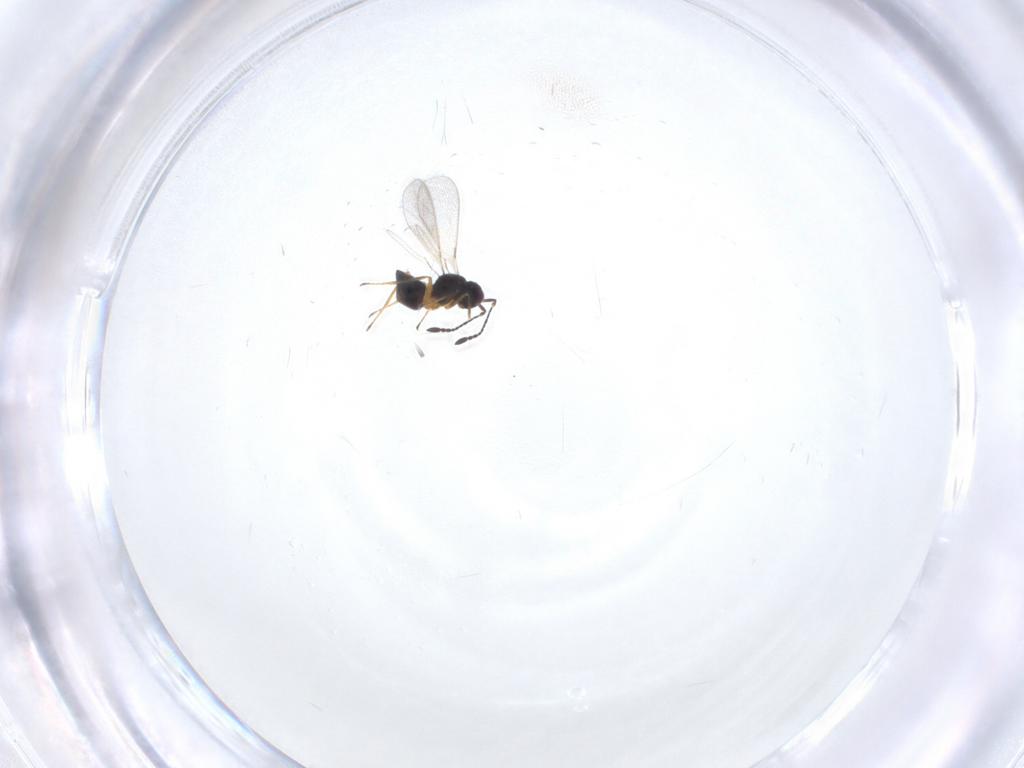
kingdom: Animalia
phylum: Arthropoda
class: Insecta
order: Hymenoptera
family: Mymaridae
